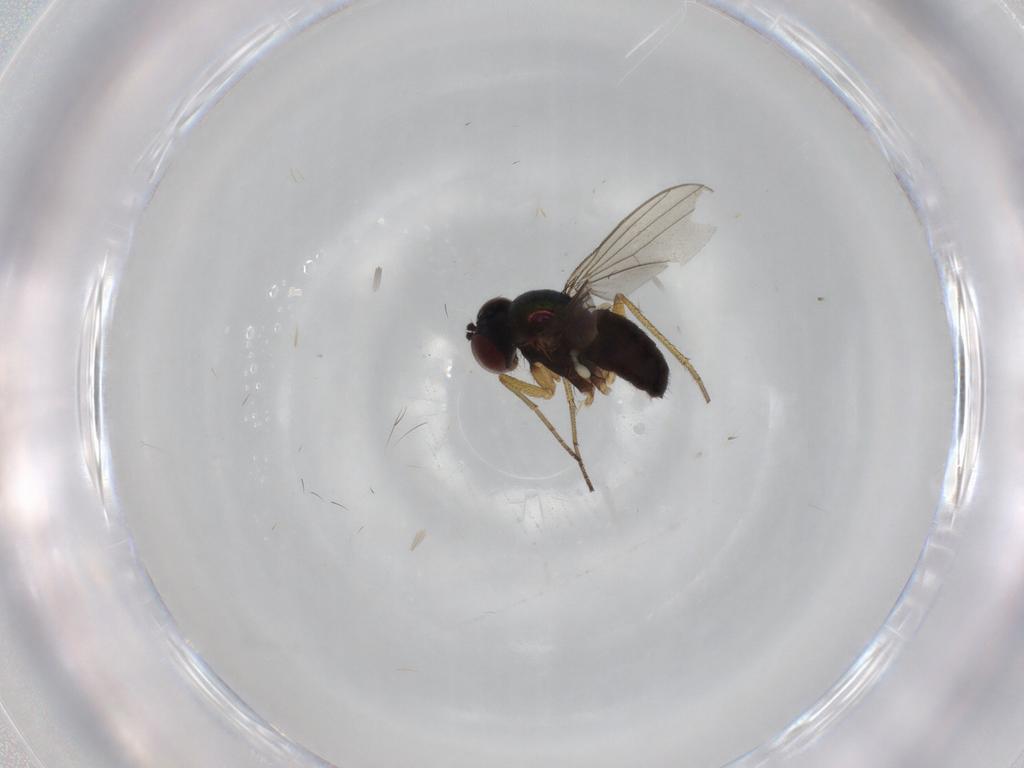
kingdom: Animalia
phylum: Arthropoda
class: Insecta
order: Diptera
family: Dolichopodidae
